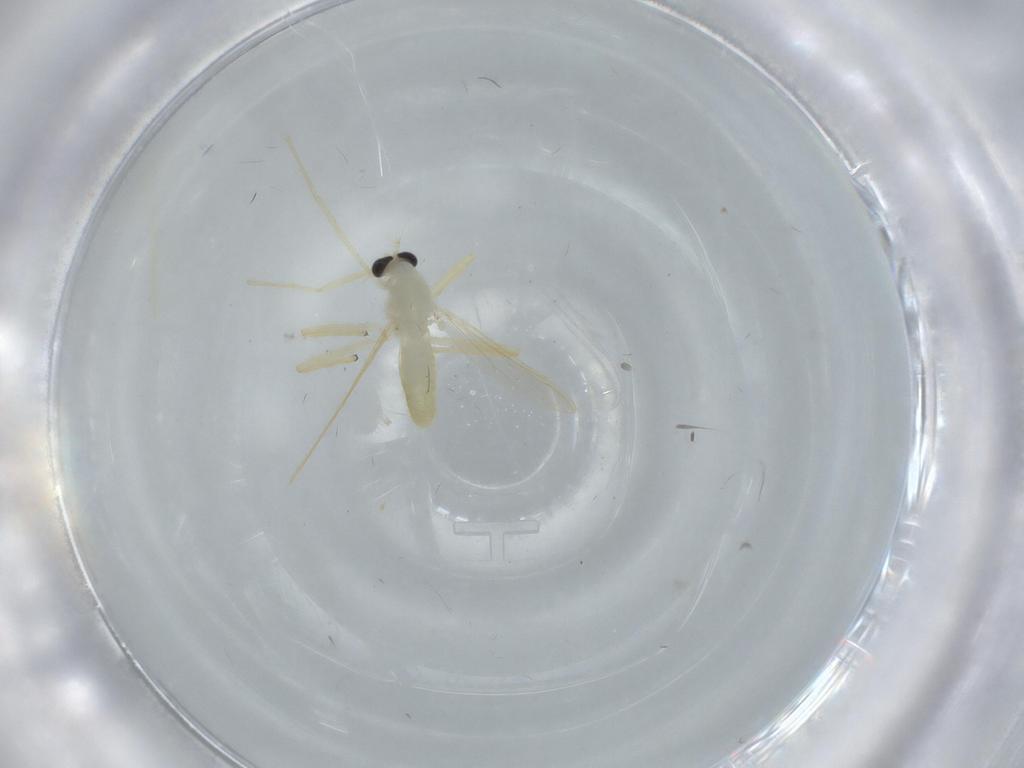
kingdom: Animalia
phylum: Arthropoda
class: Insecta
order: Diptera
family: Chironomidae
